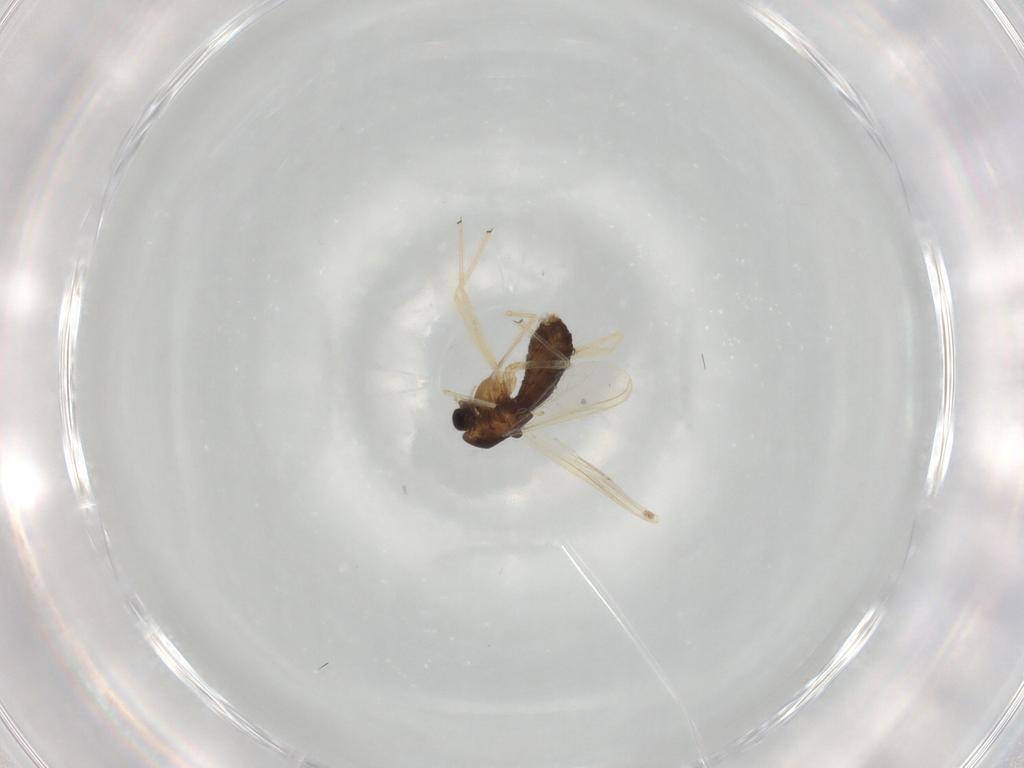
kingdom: Animalia
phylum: Arthropoda
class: Insecta
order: Diptera
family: Chironomidae
